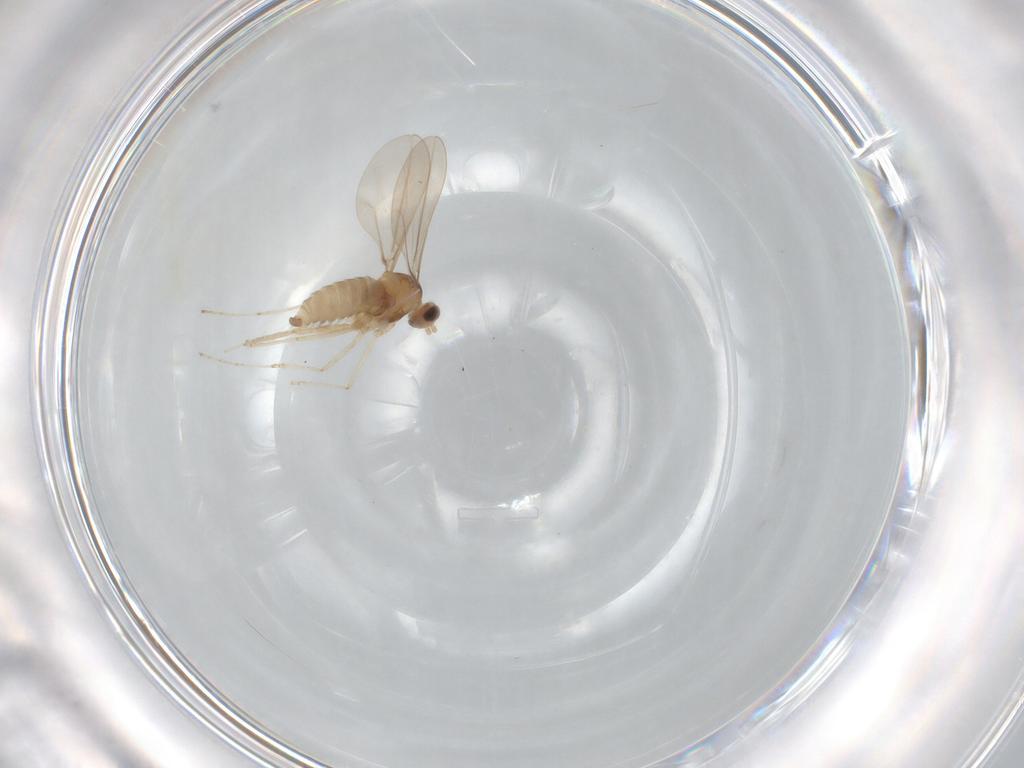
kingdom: Animalia
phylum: Arthropoda
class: Insecta
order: Diptera
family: Cecidomyiidae
